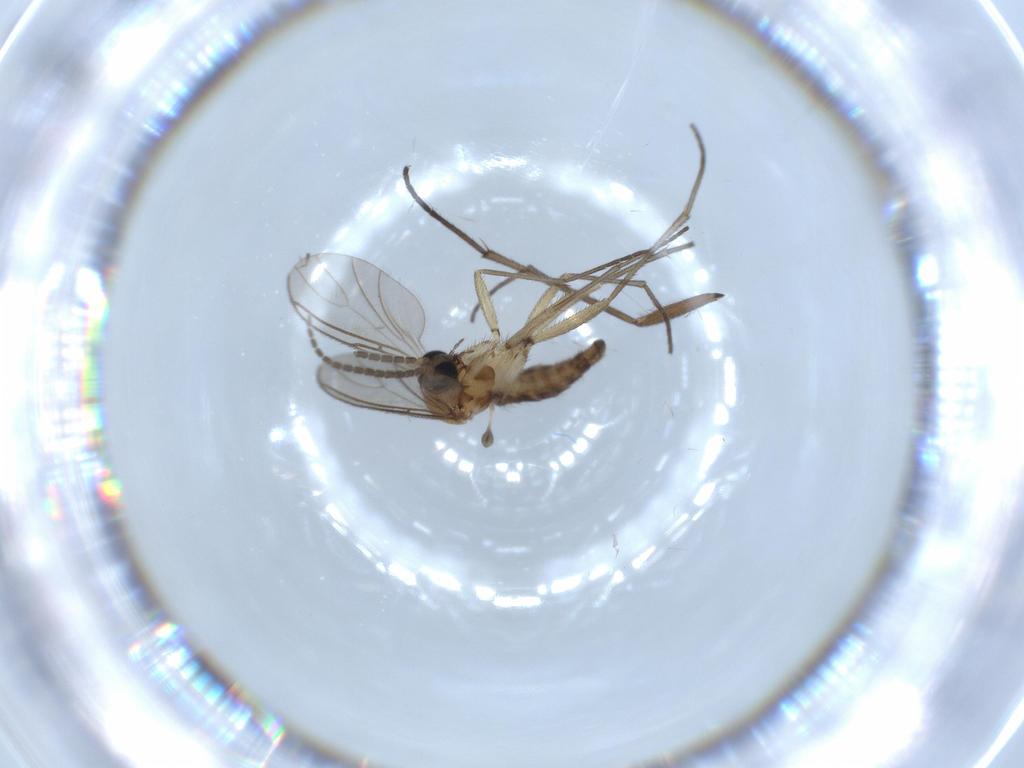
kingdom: Animalia
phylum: Arthropoda
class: Insecta
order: Diptera
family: Sciaridae
